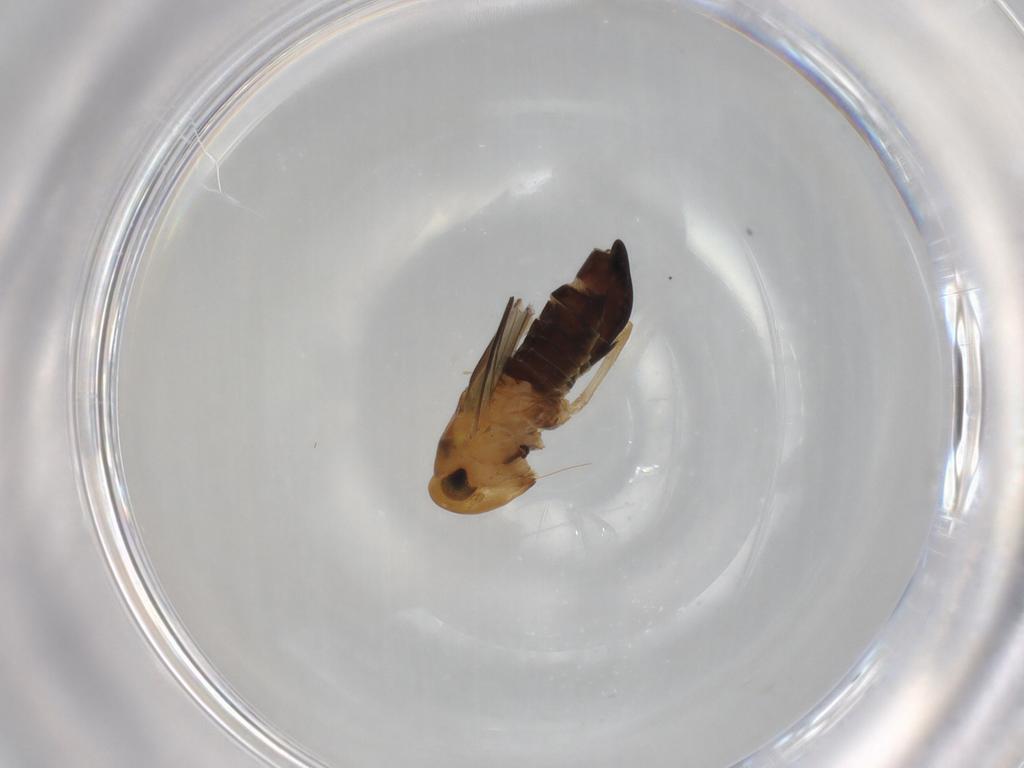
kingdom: Animalia
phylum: Arthropoda
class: Insecta
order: Hemiptera
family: Cicadellidae
